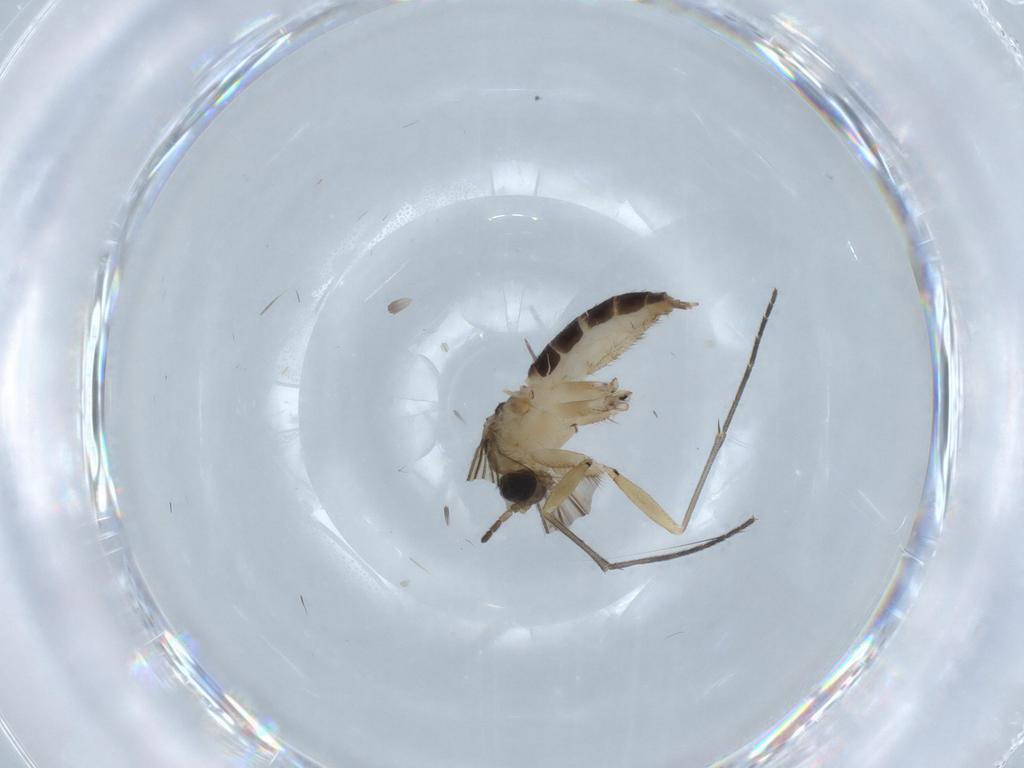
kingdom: Animalia
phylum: Arthropoda
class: Insecta
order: Diptera
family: Sciaridae
